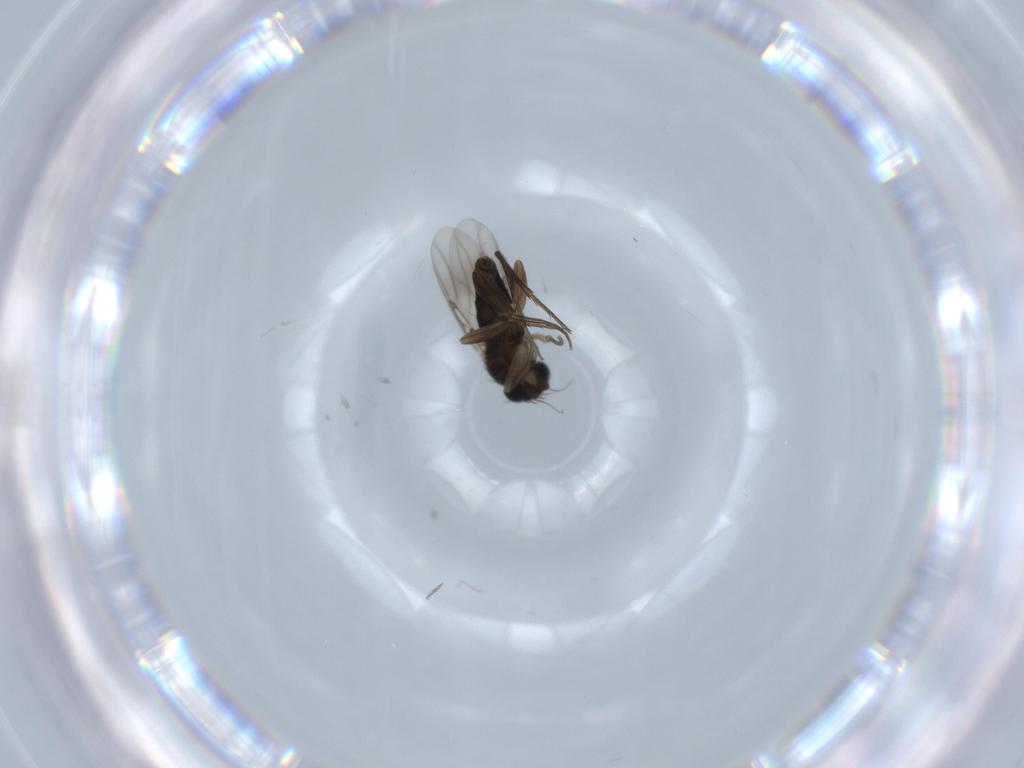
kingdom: Animalia
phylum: Arthropoda
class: Insecta
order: Diptera
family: Phoridae
